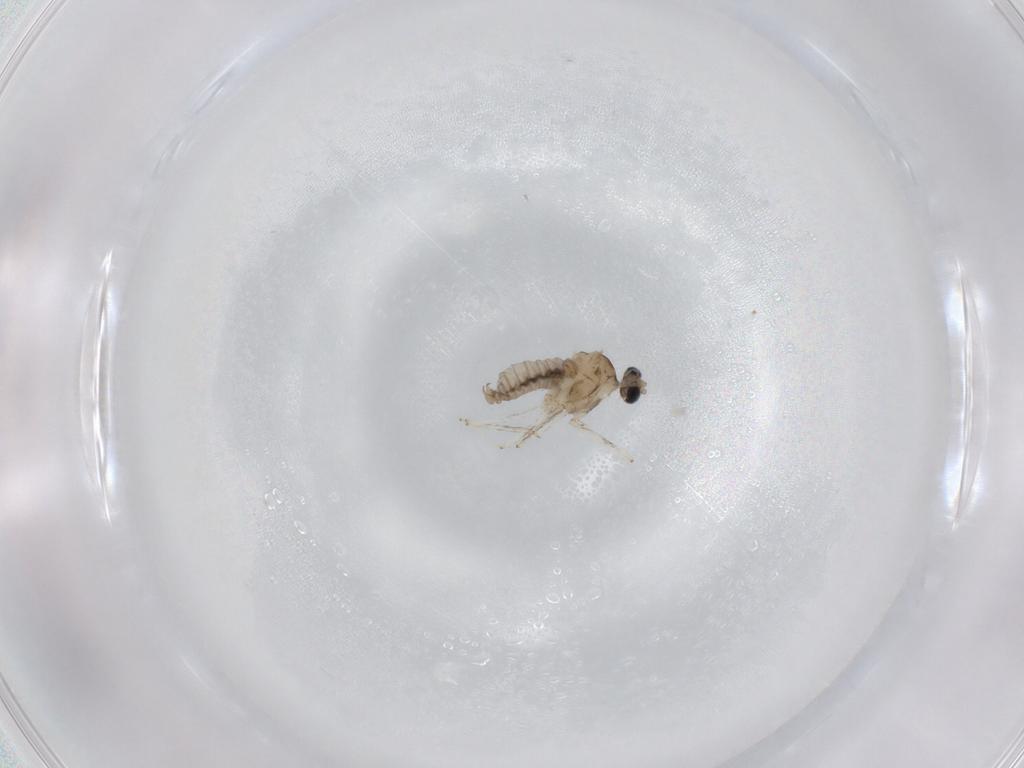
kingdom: Animalia
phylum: Arthropoda
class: Insecta
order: Diptera
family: Cecidomyiidae
